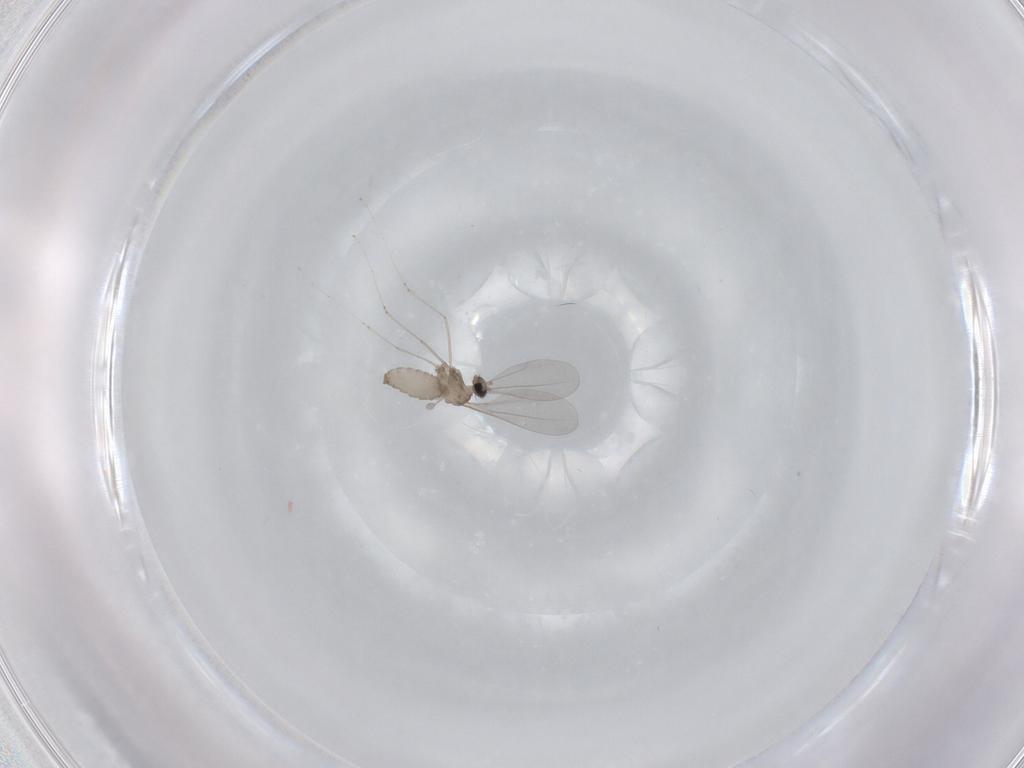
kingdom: Animalia
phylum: Arthropoda
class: Insecta
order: Diptera
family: Cecidomyiidae
